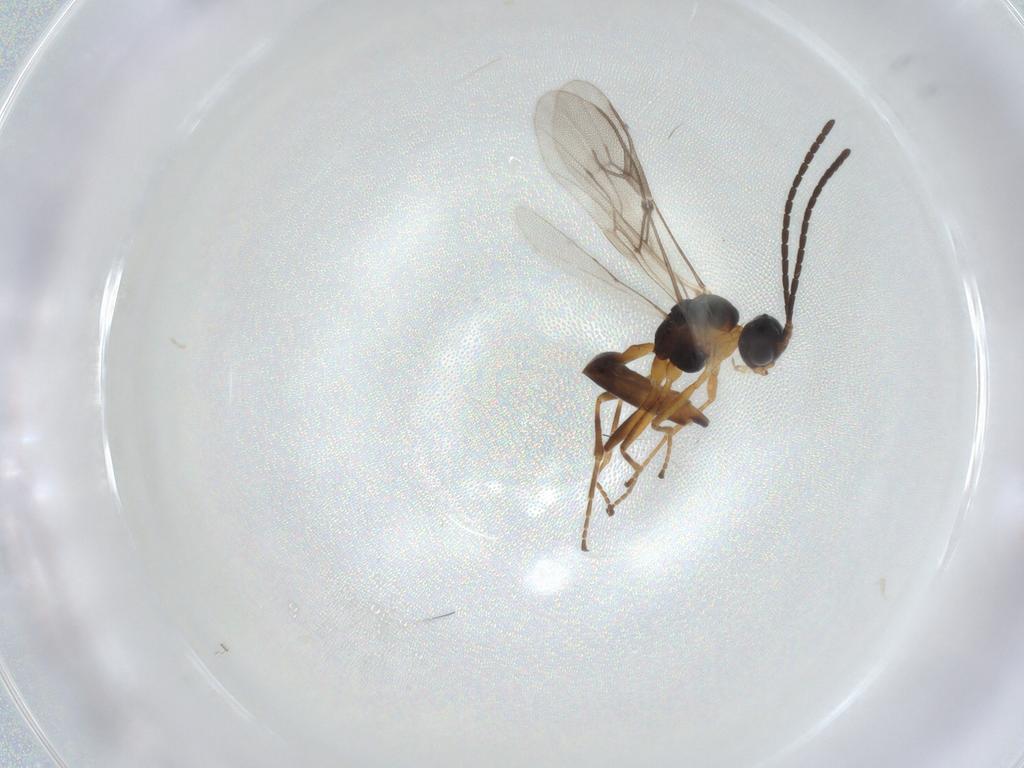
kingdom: Animalia
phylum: Arthropoda
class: Insecta
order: Hymenoptera
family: Braconidae
